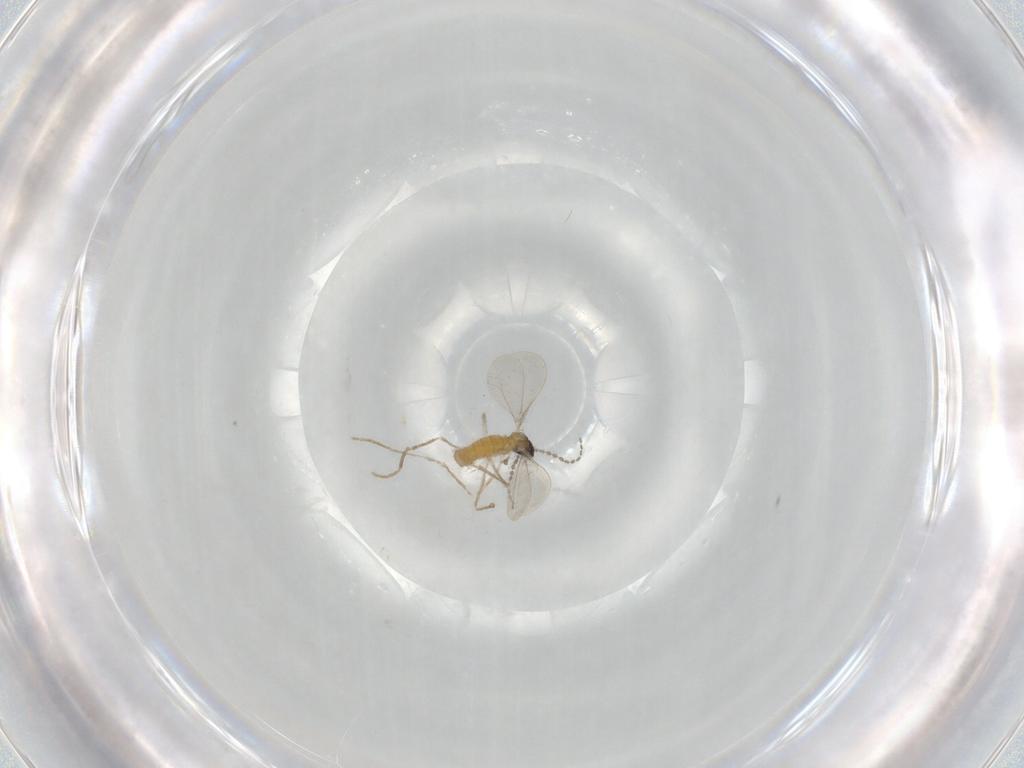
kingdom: Animalia
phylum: Arthropoda
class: Insecta
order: Diptera
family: Cecidomyiidae
